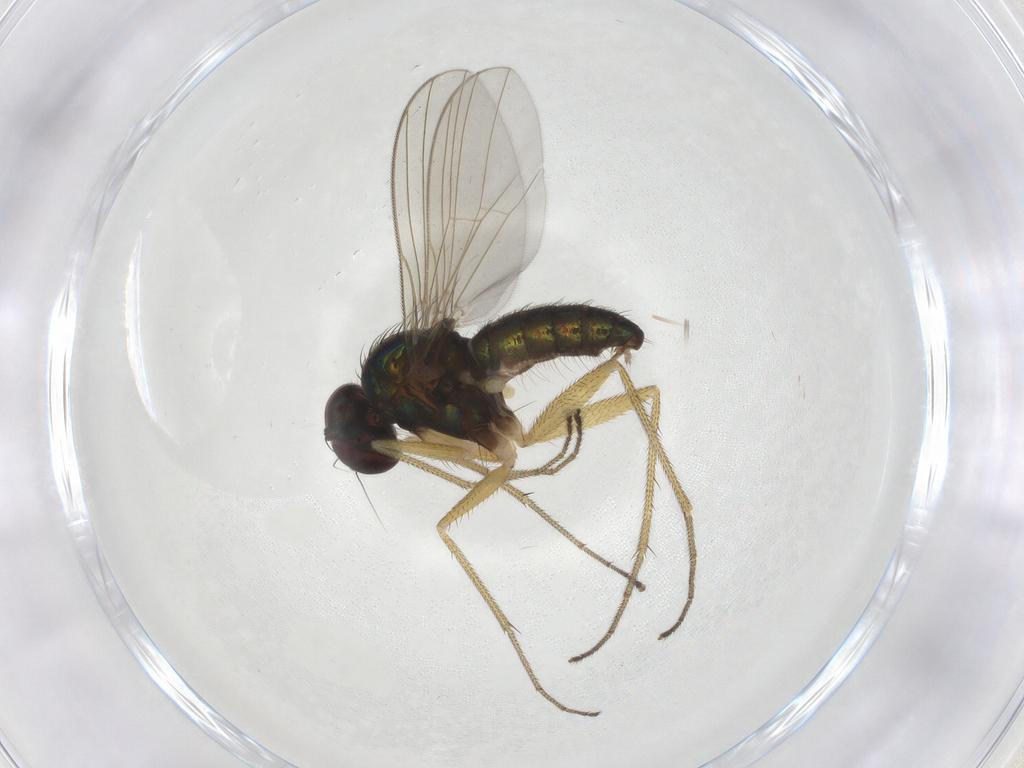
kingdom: Animalia
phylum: Arthropoda
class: Insecta
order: Diptera
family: Dolichopodidae
